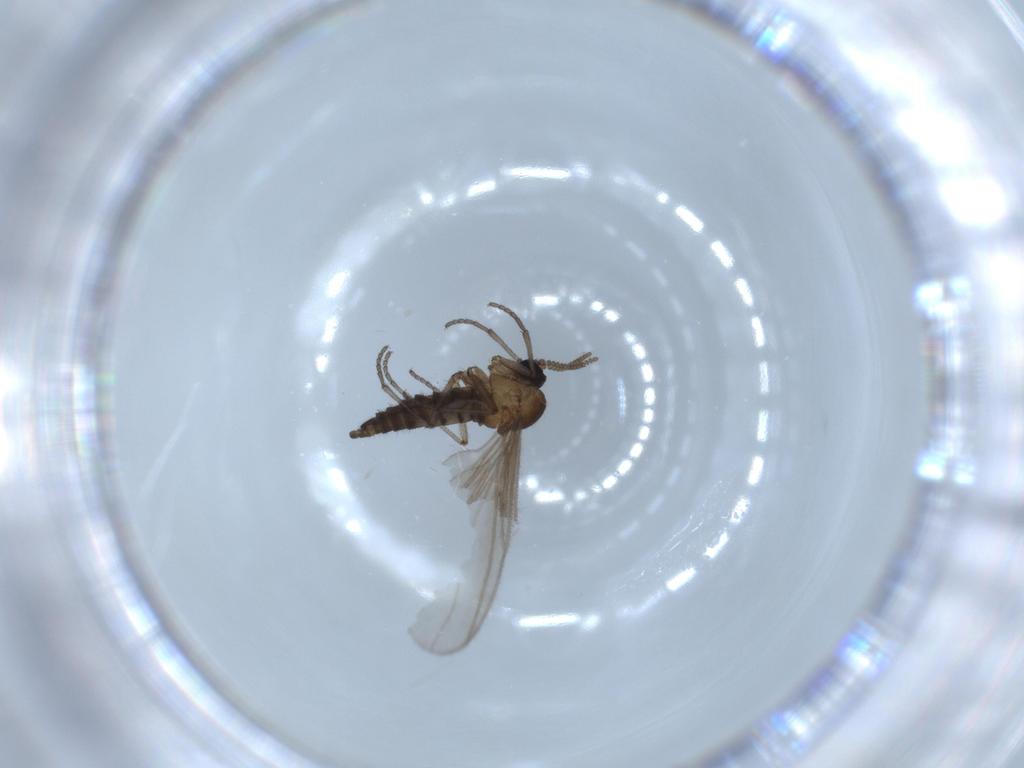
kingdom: Animalia
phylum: Arthropoda
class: Insecta
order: Diptera
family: Sciaridae
